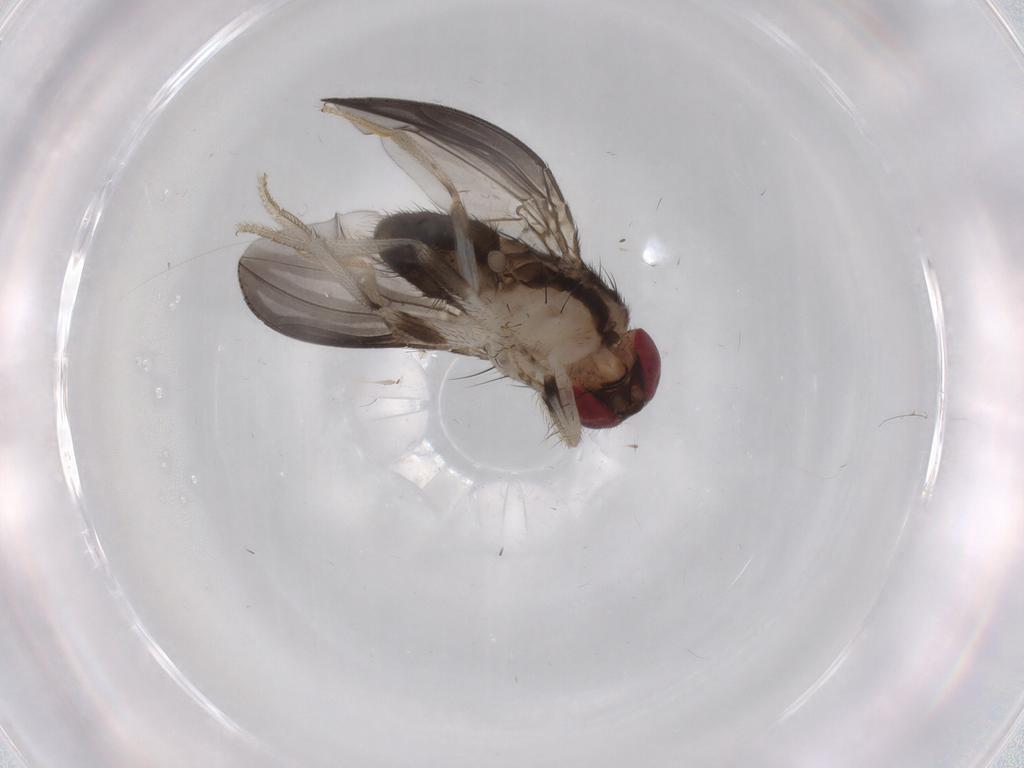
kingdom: Animalia
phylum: Arthropoda
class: Insecta
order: Diptera
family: Drosophilidae
